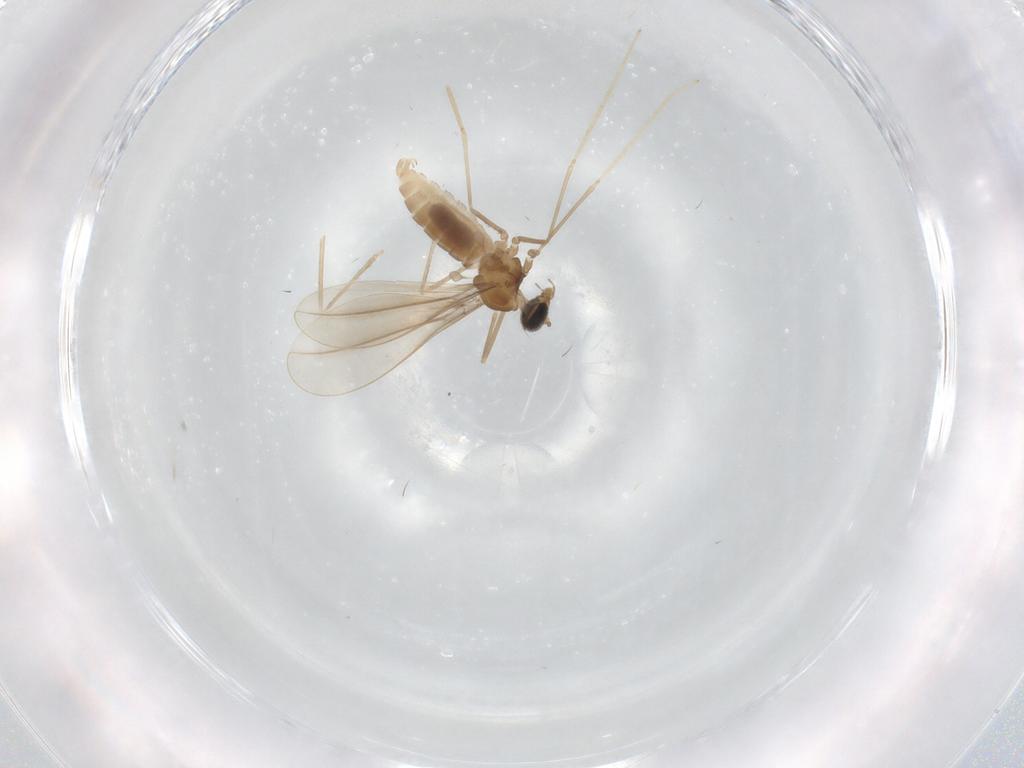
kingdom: Animalia
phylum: Arthropoda
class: Insecta
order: Diptera
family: Cecidomyiidae
